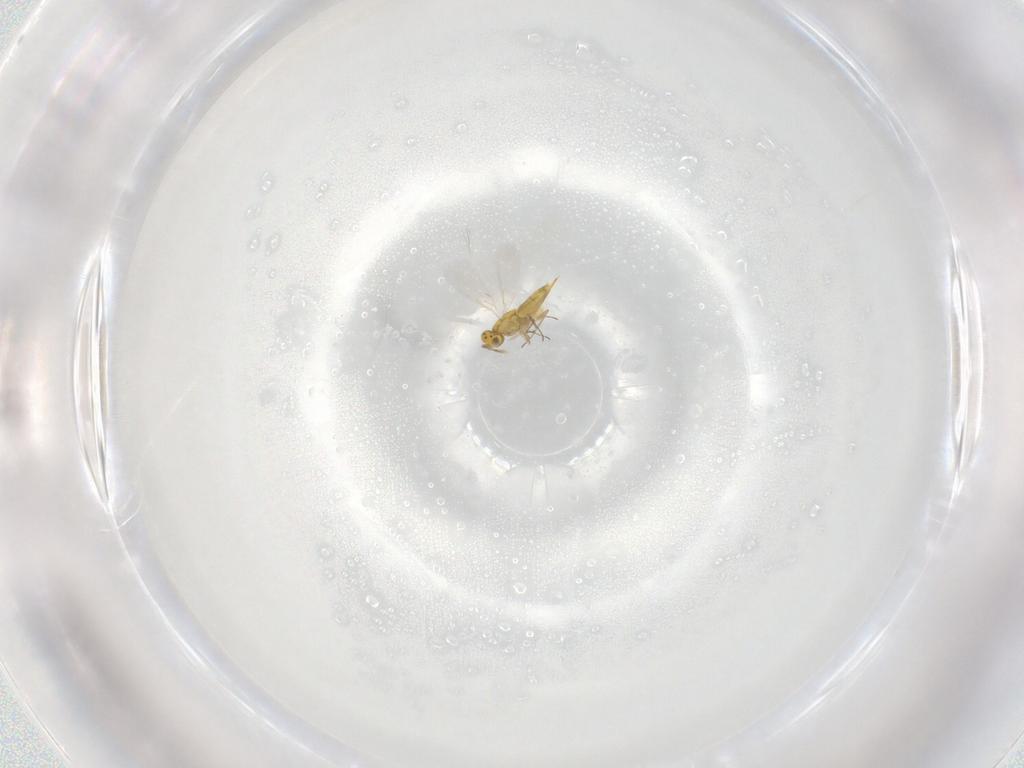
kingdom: Animalia
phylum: Arthropoda
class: Insecta
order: Hymenoptera
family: Aphelinidae
